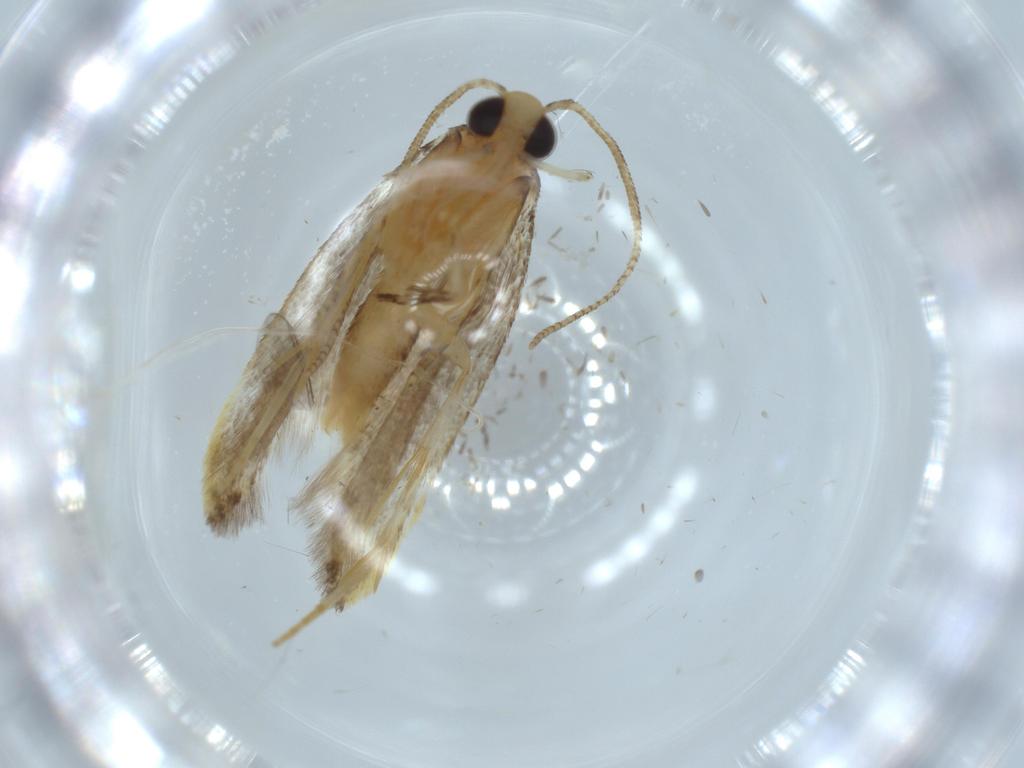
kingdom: Animalia
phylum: Arthropoda
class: Insecta
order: Lepidoptera
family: Autostichidae
